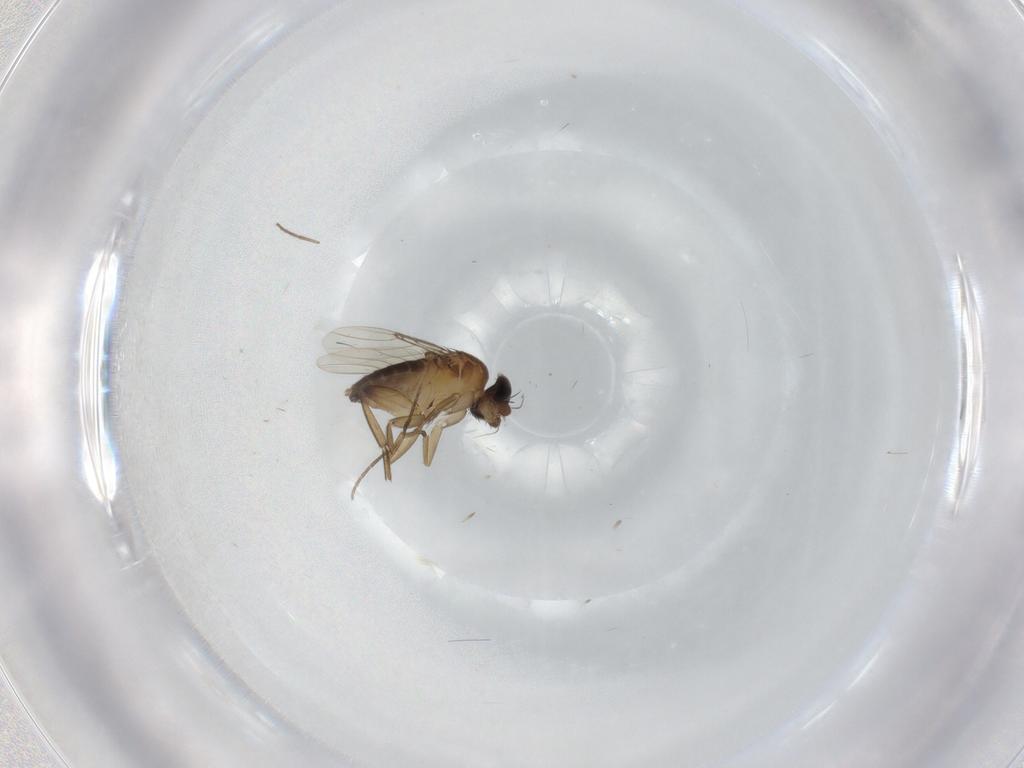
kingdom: Animalia
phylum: Arthropoda
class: Insecta
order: Diptera
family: Phoridae
